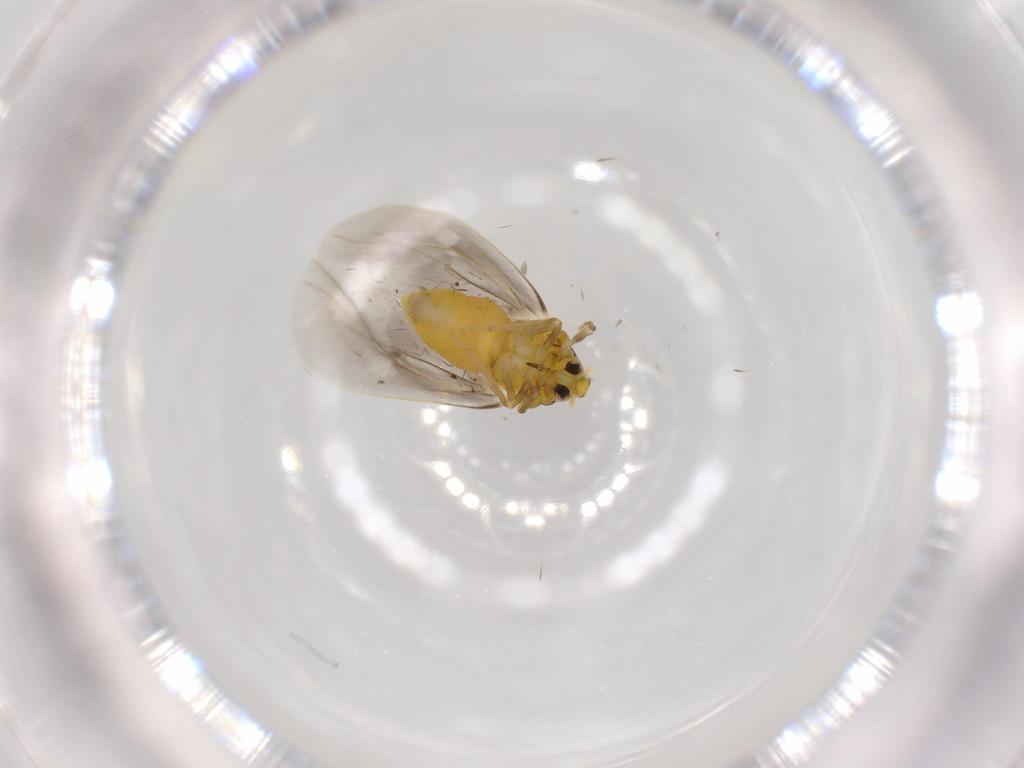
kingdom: Animalia
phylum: Arthropoda
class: Insecta
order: Hemiptera
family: Aleyrodidae
